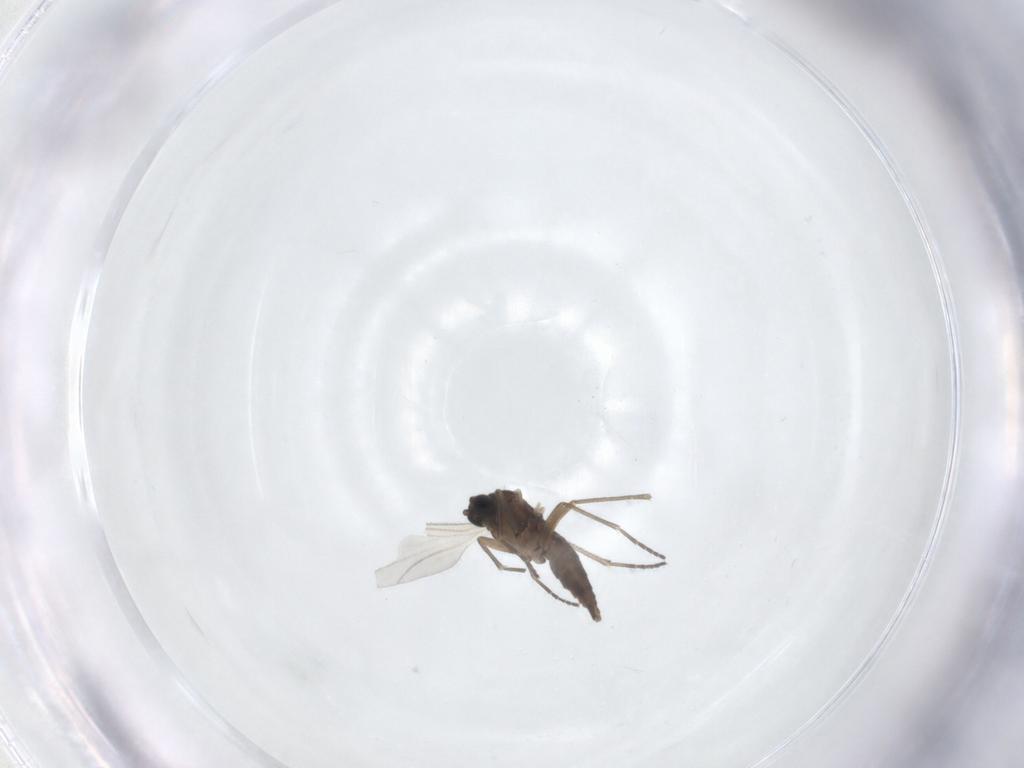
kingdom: Animalia
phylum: Arthropoda
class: Insecta
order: Diptera
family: Sciaridae
